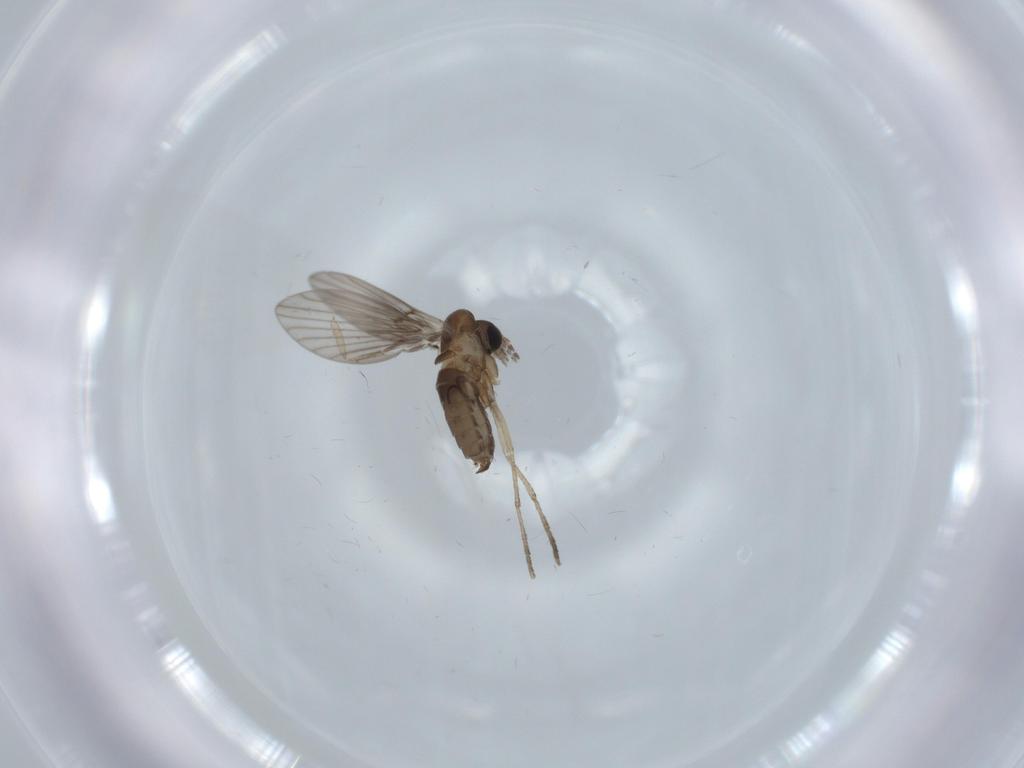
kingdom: Animalia
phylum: Arthropoda
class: Insecta
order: Diptera
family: Psychodidae
